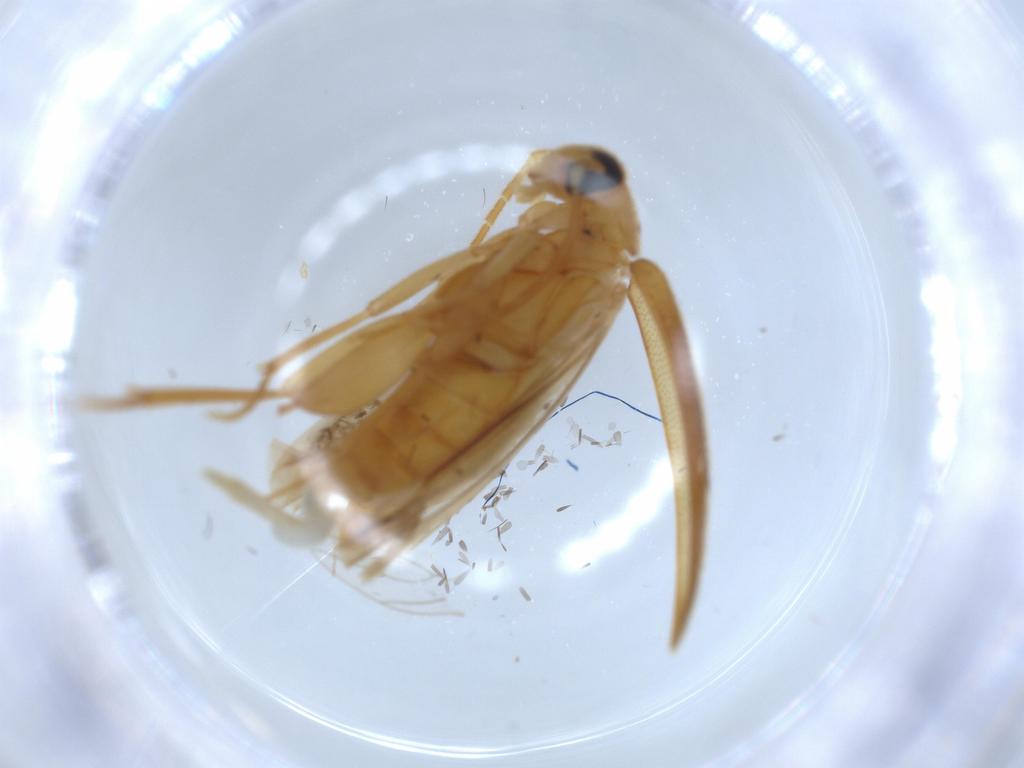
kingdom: Animalia
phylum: Arthropoda
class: Insecta
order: Coleoptera
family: Scraptiidae
